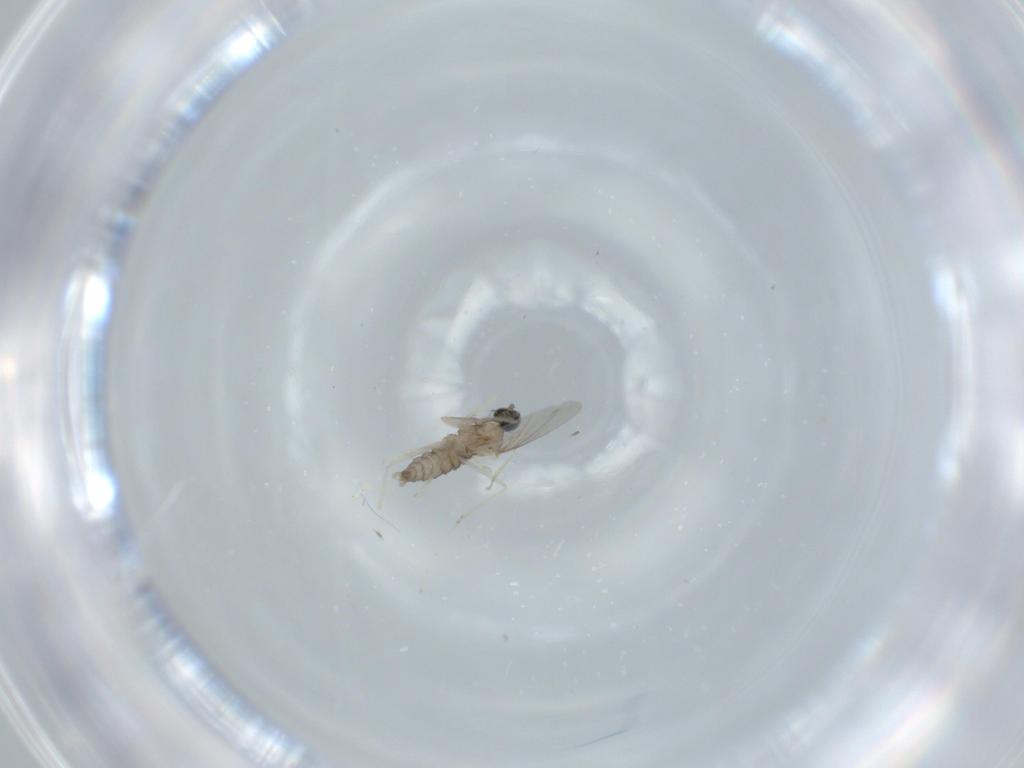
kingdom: Animalia
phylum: Arthropoda
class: Insecta
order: Diptera
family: Cecidomyiidae
